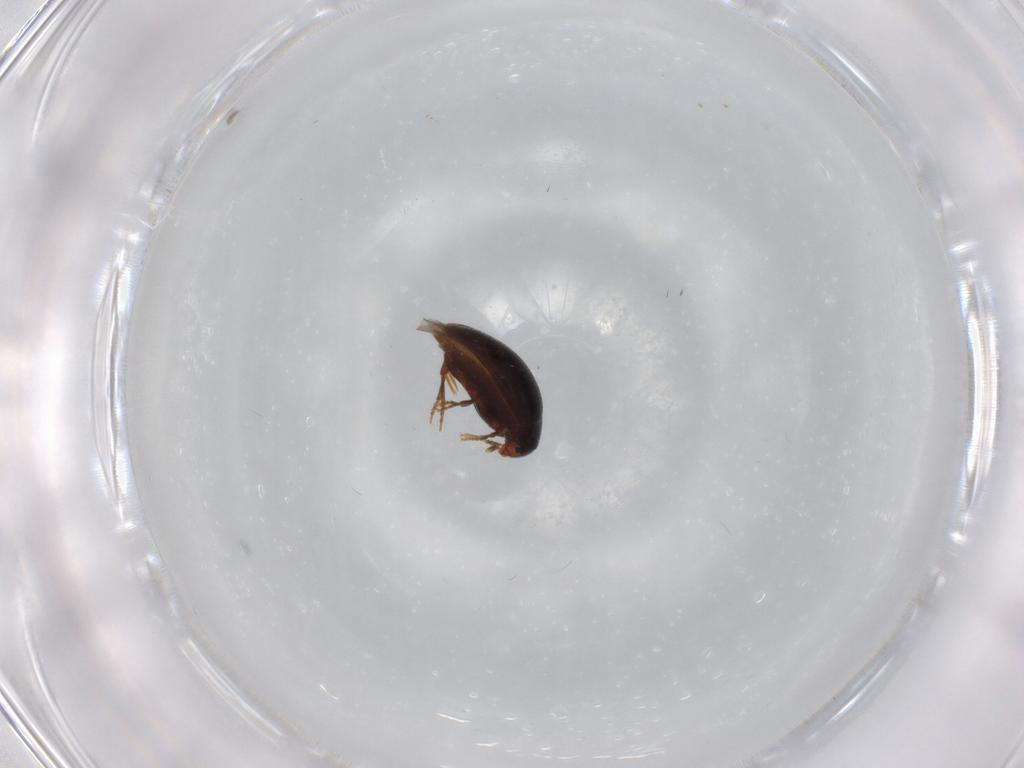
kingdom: Animalia
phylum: Arthropoda
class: Insecta
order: Coleoptera
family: Melandryidae
